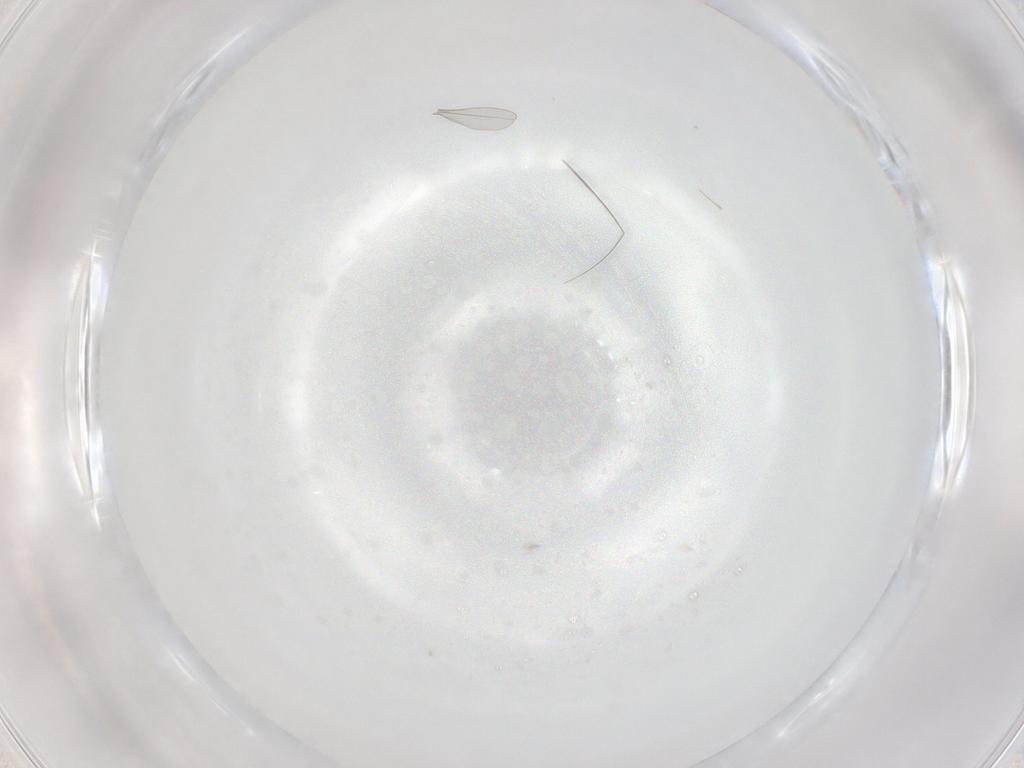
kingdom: Animalia
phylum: Arthropoda
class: Insecta
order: Diptera
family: Cecidomyiidae
